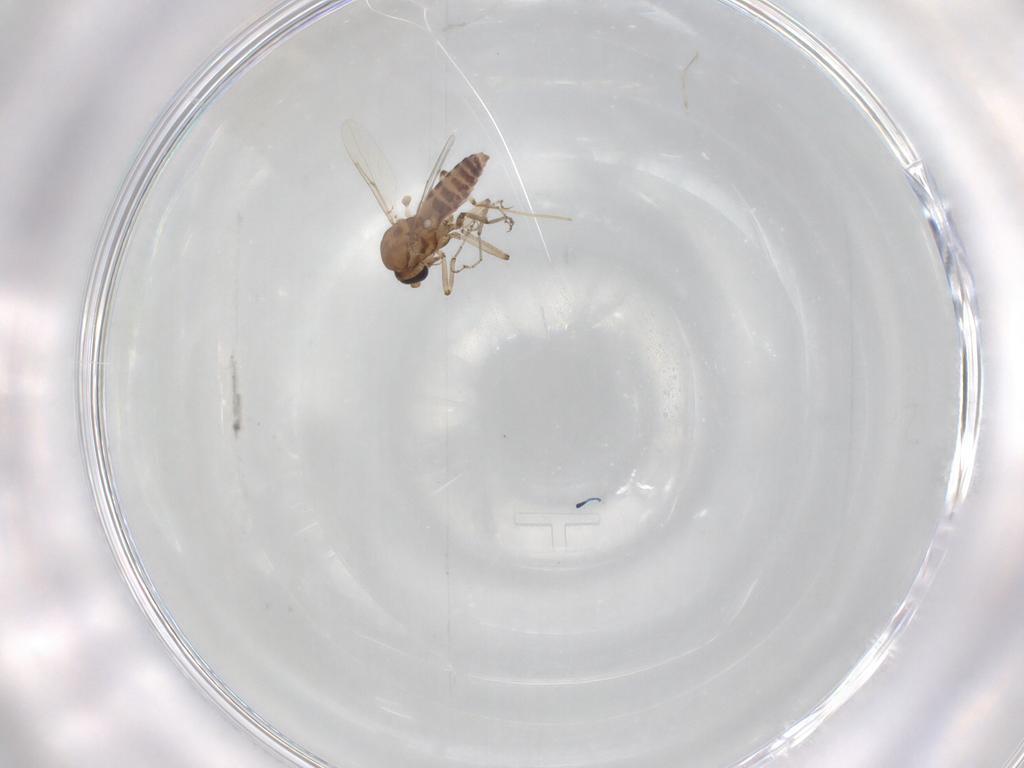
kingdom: Animalia
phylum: Arthropoda
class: Insecta
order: Diptera
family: Ceratopogonidae
